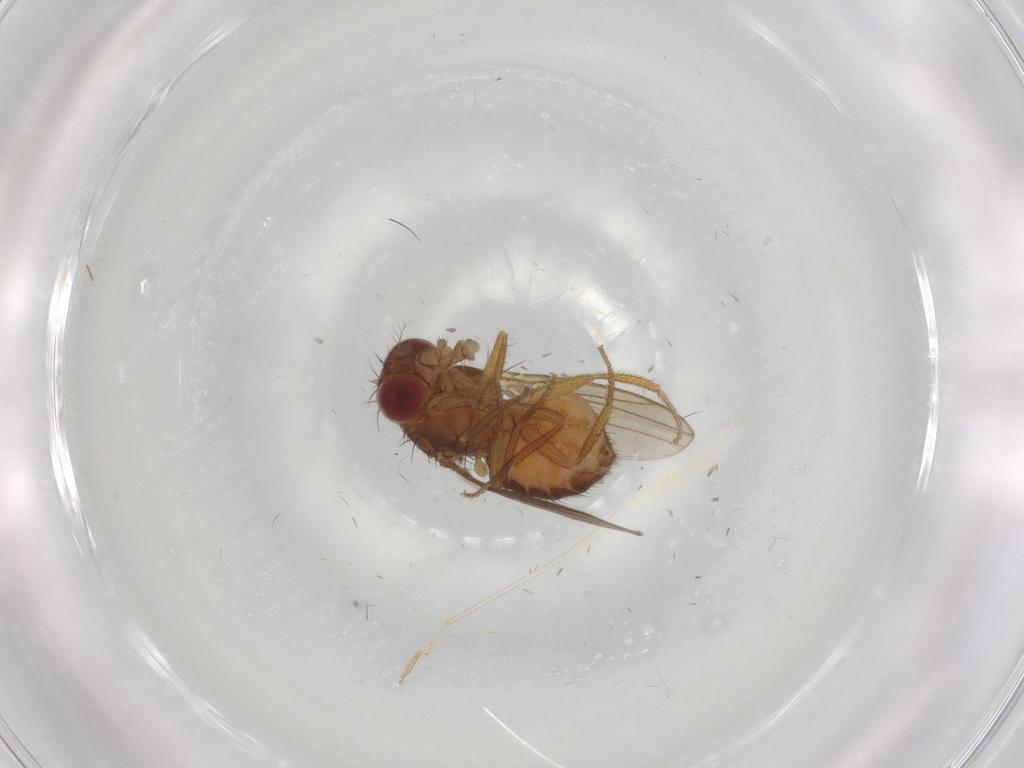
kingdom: Animalia
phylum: Arthropoda
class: Insecta
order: Diptera
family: Drosophilidae
